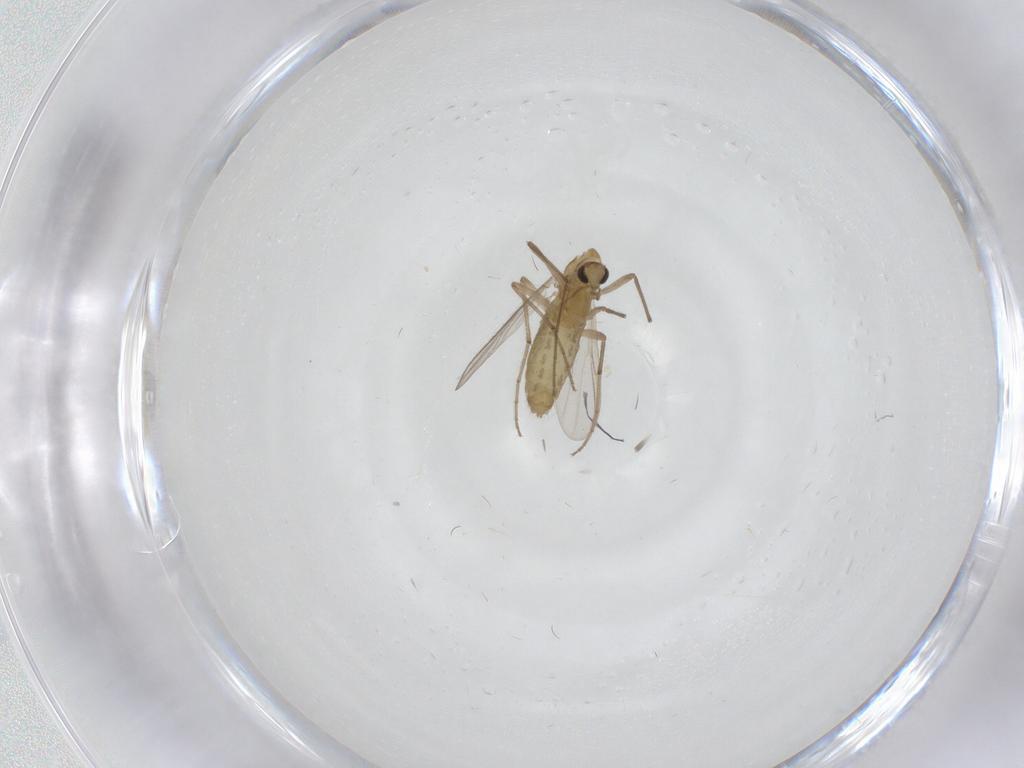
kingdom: Animalia
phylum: Arthropoda
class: Insecta
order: Diptera
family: Chironomidae
